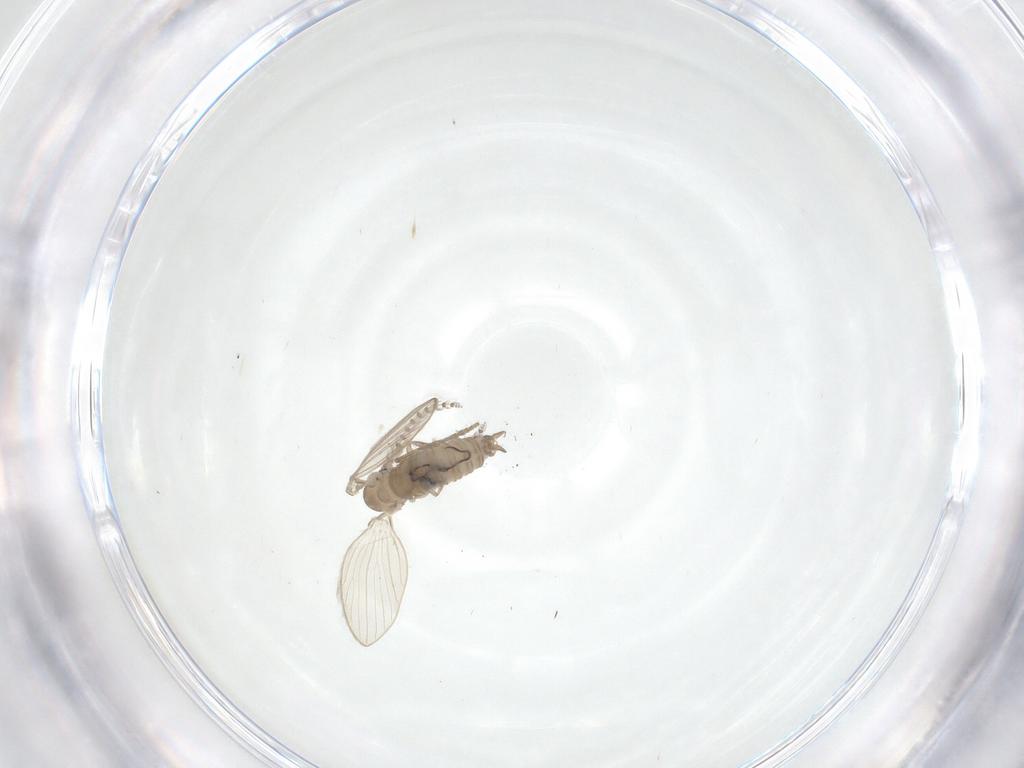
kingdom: Animalia
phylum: Arthropoda
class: Insecta
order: Diptera
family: Psychodidae
